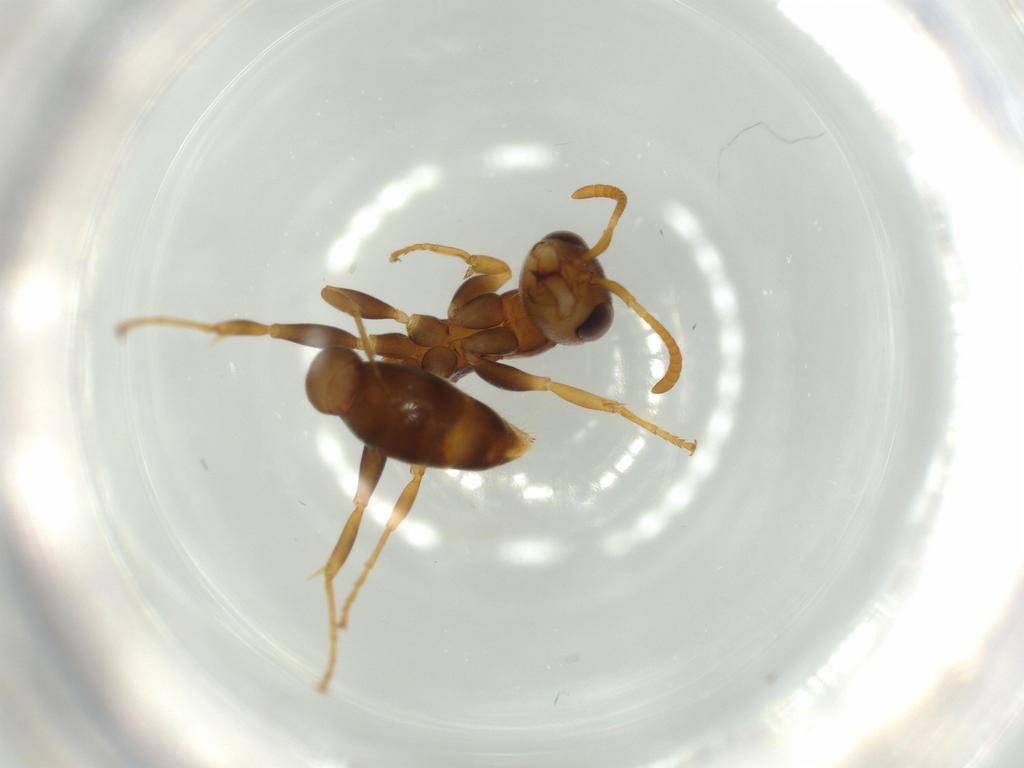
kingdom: Animalia
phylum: Arthropoda
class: Insecta
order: Hymenoptera
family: Formicidae
